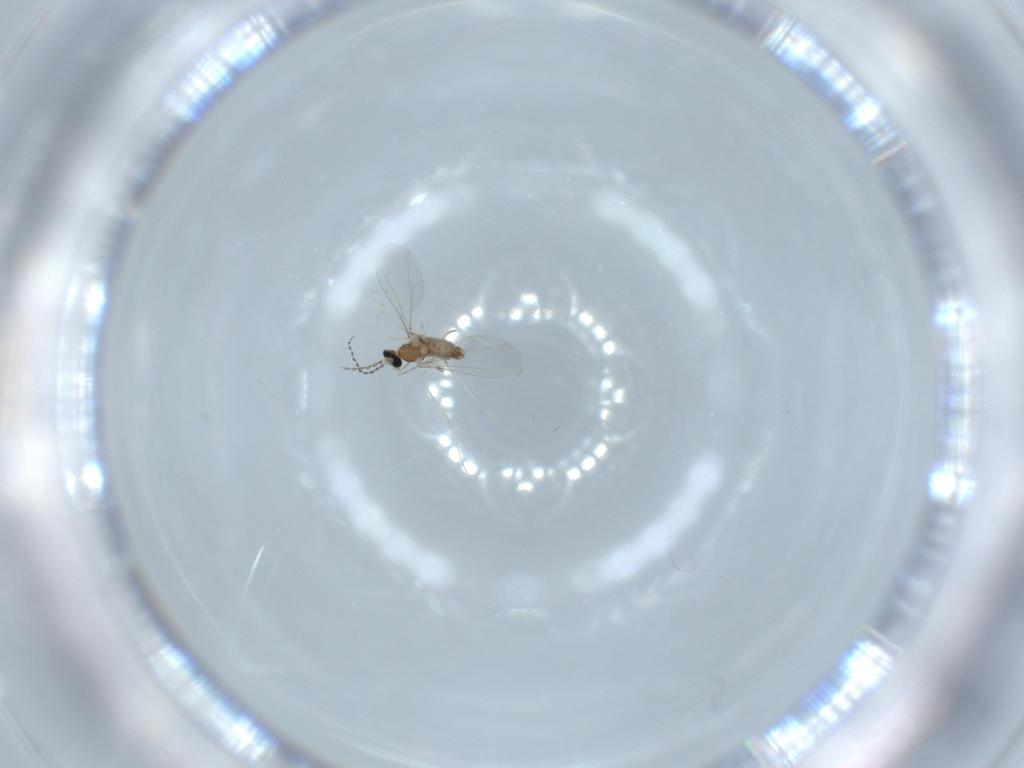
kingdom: Animalia
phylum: Arthropoda
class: Insecta
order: Diptera
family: Cecidomyiidae
